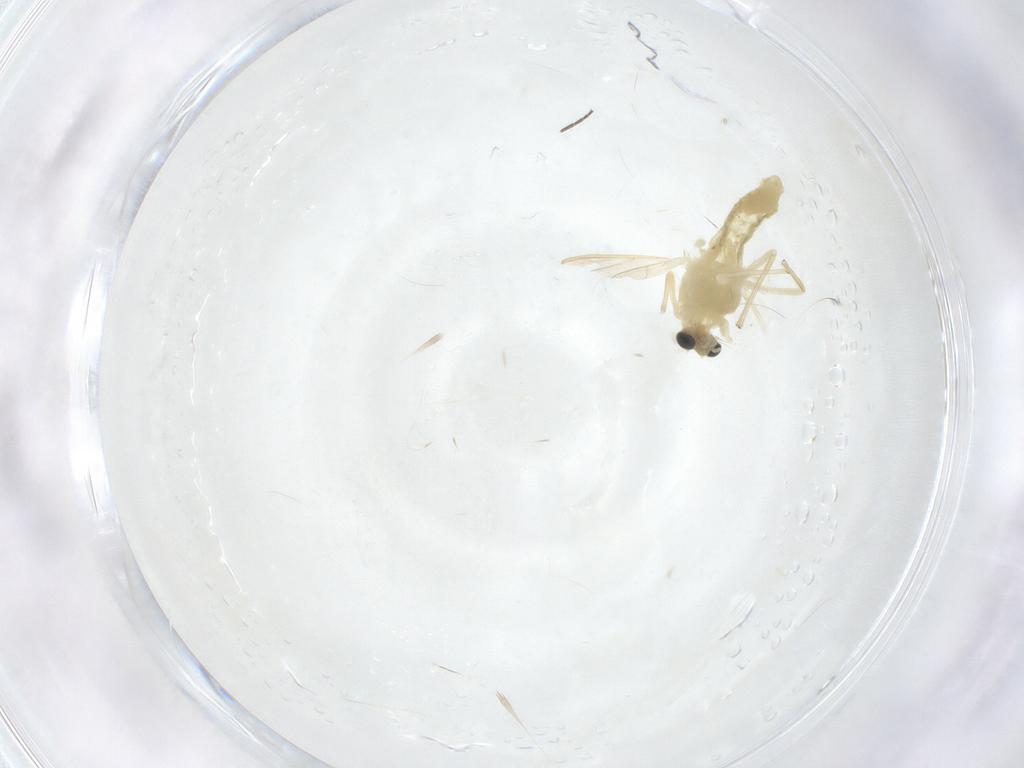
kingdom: Animalia
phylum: Arthropoda
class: Insecta
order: Diptera
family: Chironomidae
